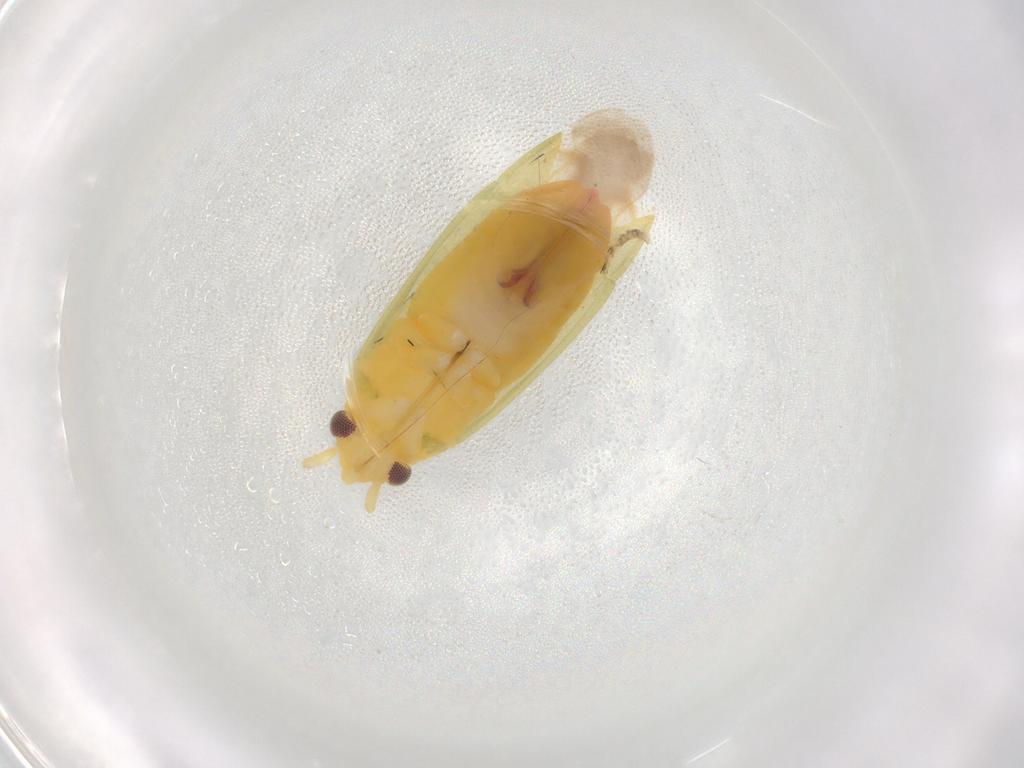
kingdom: Animalia
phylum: Arthropoda
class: Insecta
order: Hemiptera
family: Miridae
